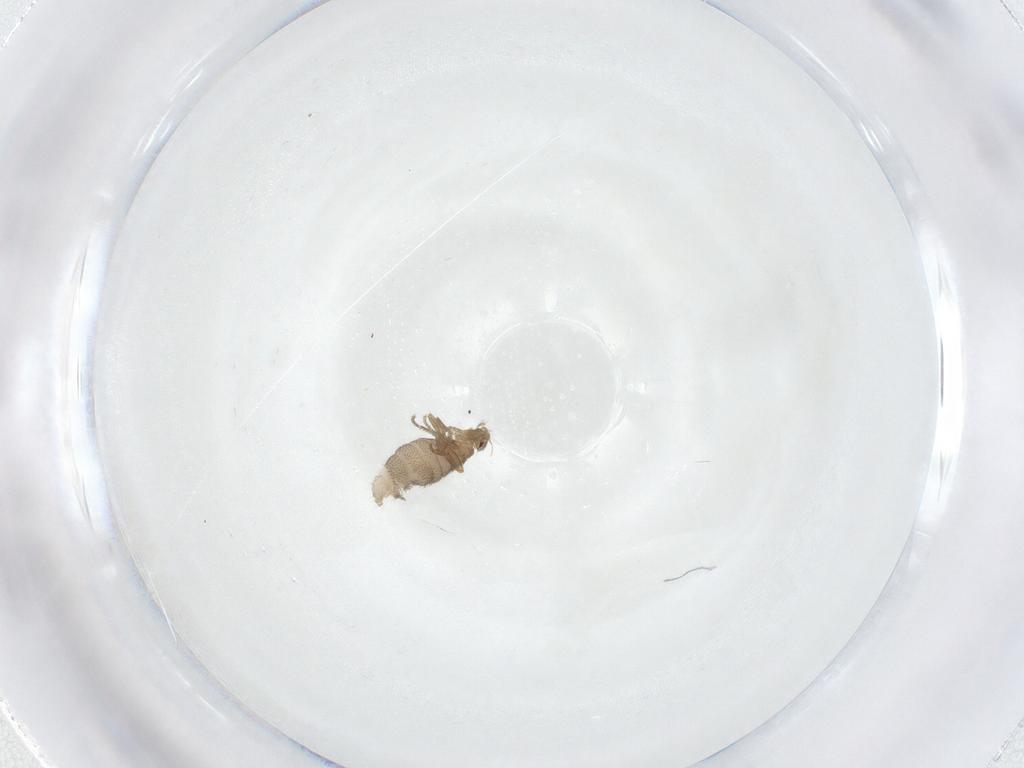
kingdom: Animalia
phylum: Arthropoda
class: Insecta
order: Diptera
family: Phoridae
